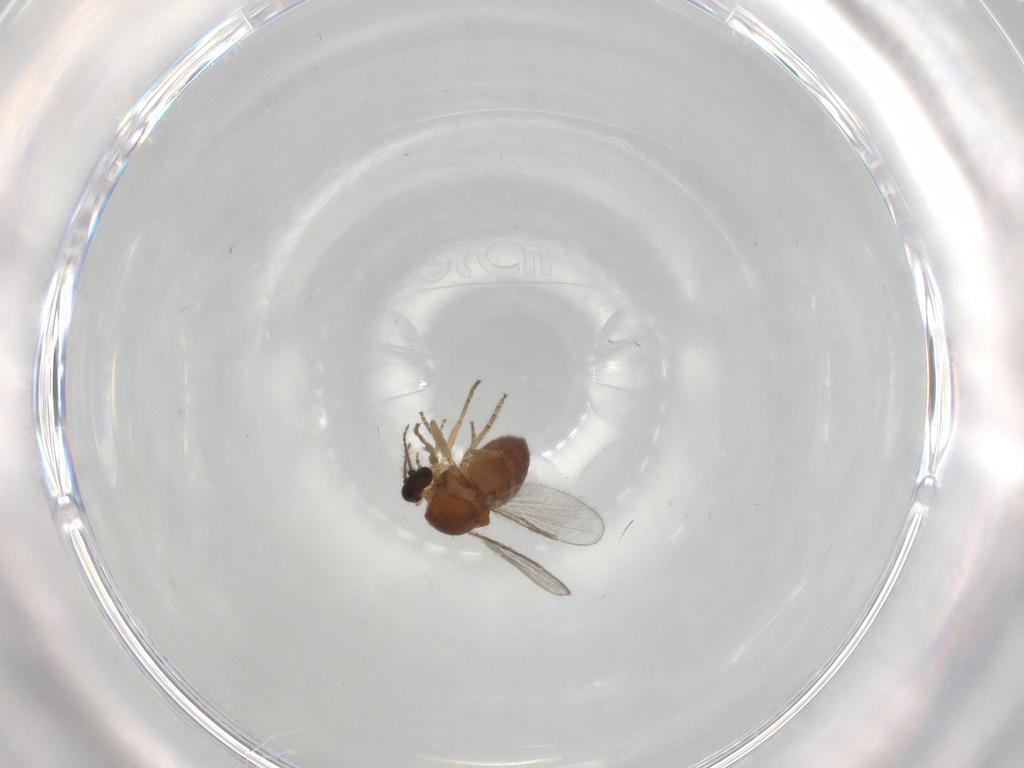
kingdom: Animalia
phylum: Arthropoda
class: Insecta
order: Diptera
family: Ceratopogonidae
